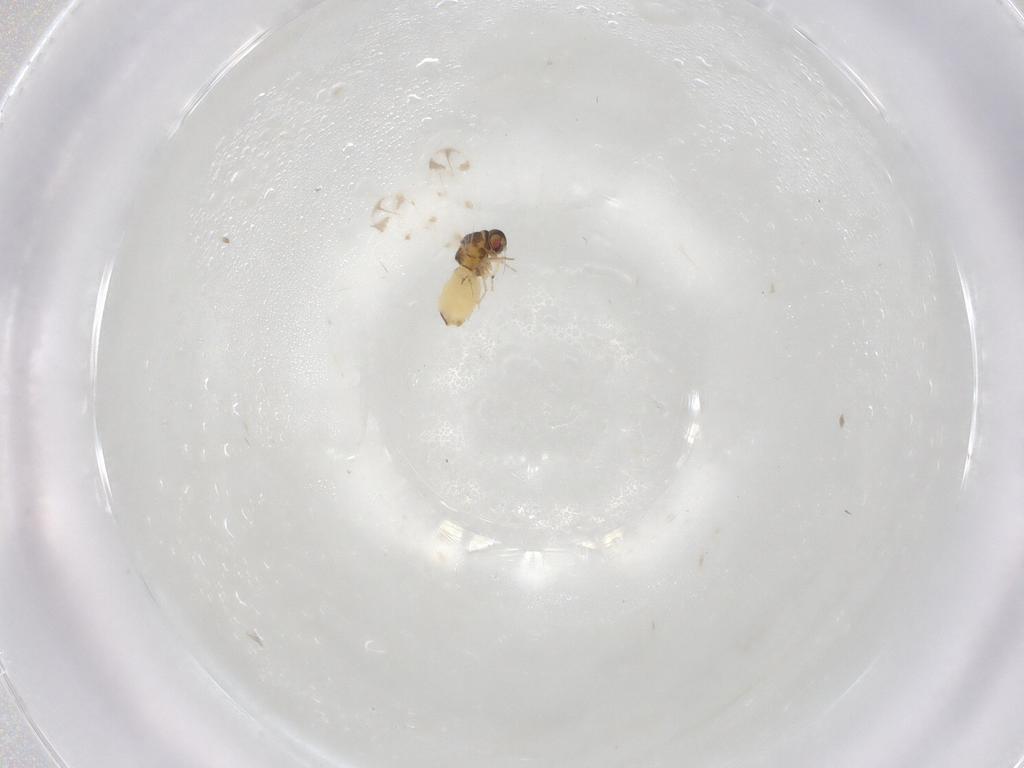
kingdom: Animalia
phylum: Arthropoda
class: Insecta
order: Hemiptera
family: Aleyrodidae
